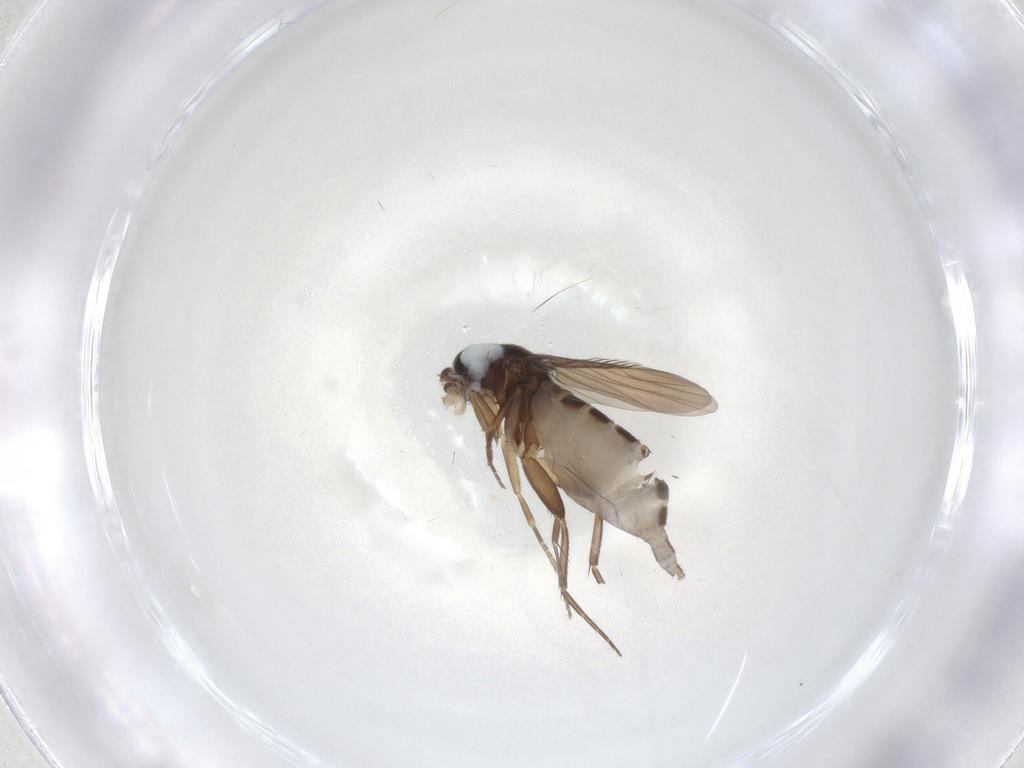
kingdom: Animalia
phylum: Arthropoda
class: Insecta
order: Diptera
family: Phoridae
